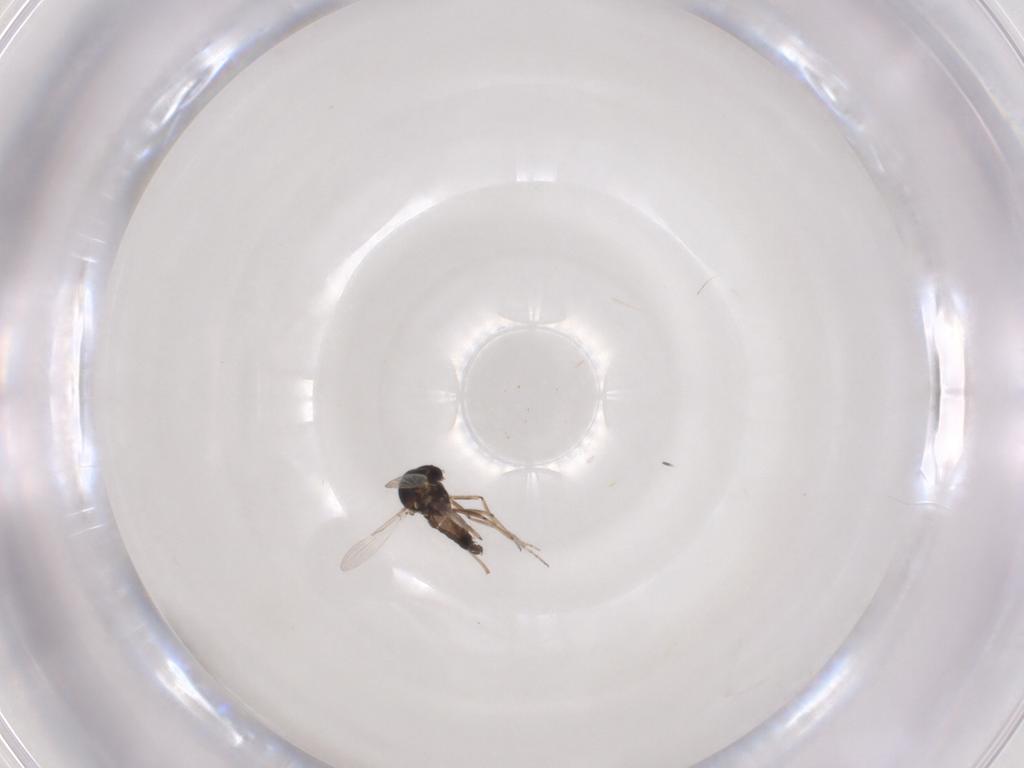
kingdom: Animalia
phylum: Arthropoda
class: Insecta
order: Diptera
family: Ceratopogonidae
